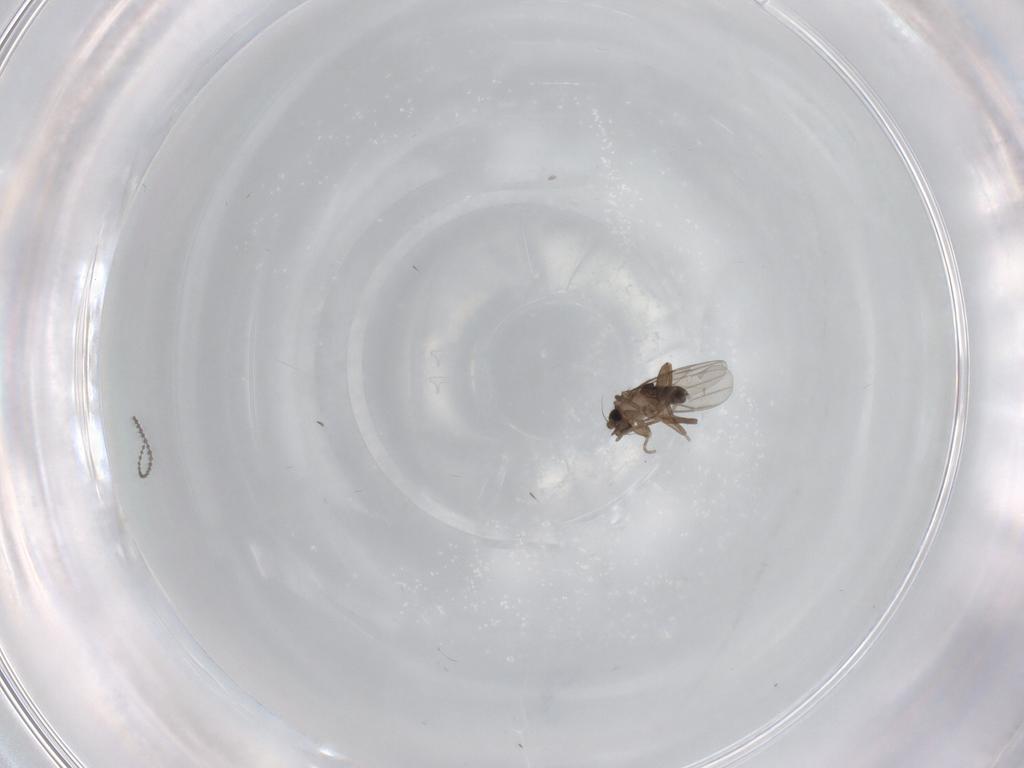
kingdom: Animalia
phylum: Arthropoda
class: Insecta
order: Diptera
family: Cecidomyiidae
